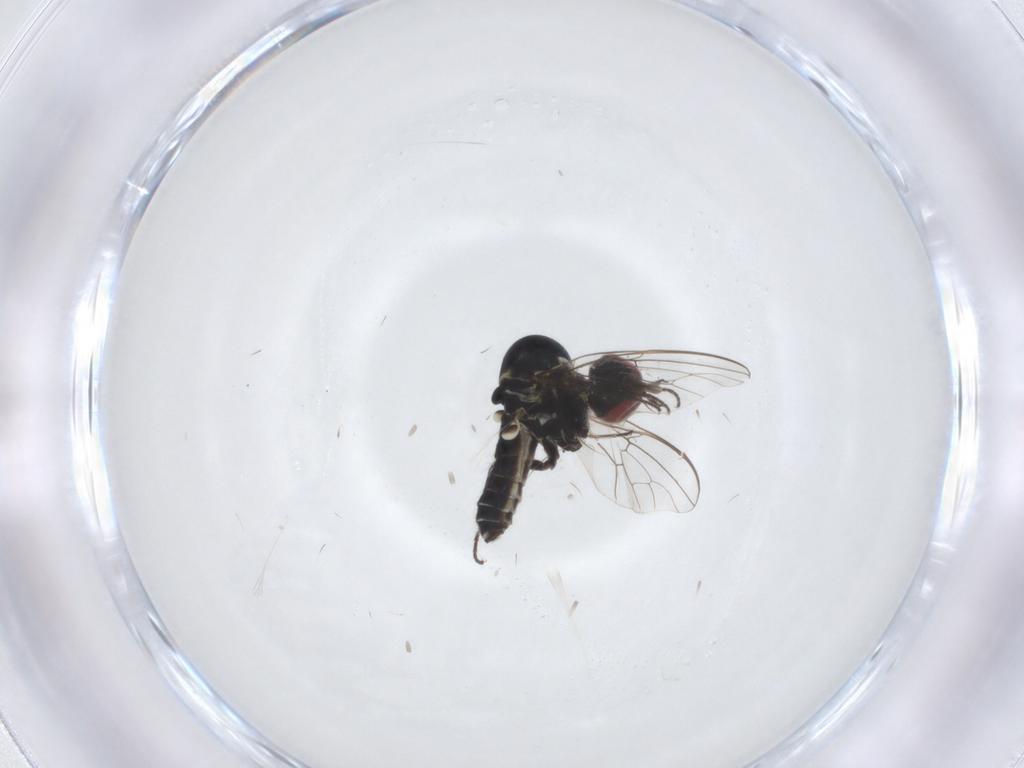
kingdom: Animalia
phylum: Arthropoda
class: Insecta
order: Diptera
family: Bombyliidae
